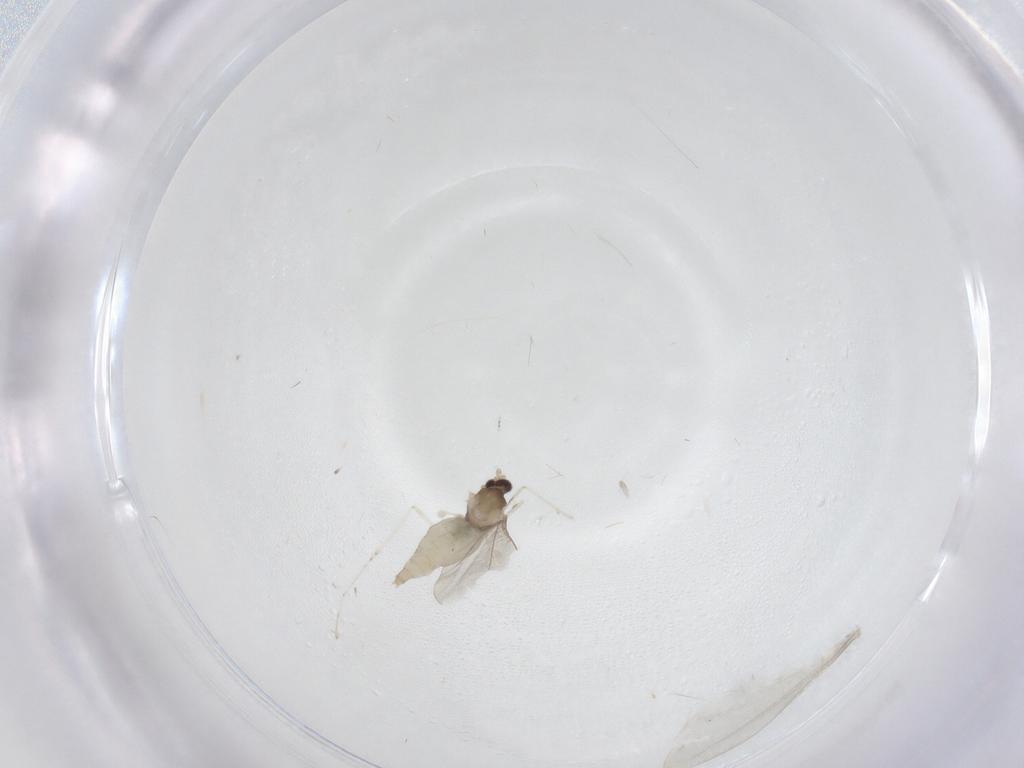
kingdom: Animalia
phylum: Arthropoda
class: Insecta
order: Diptera
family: Cecidomyiidae
